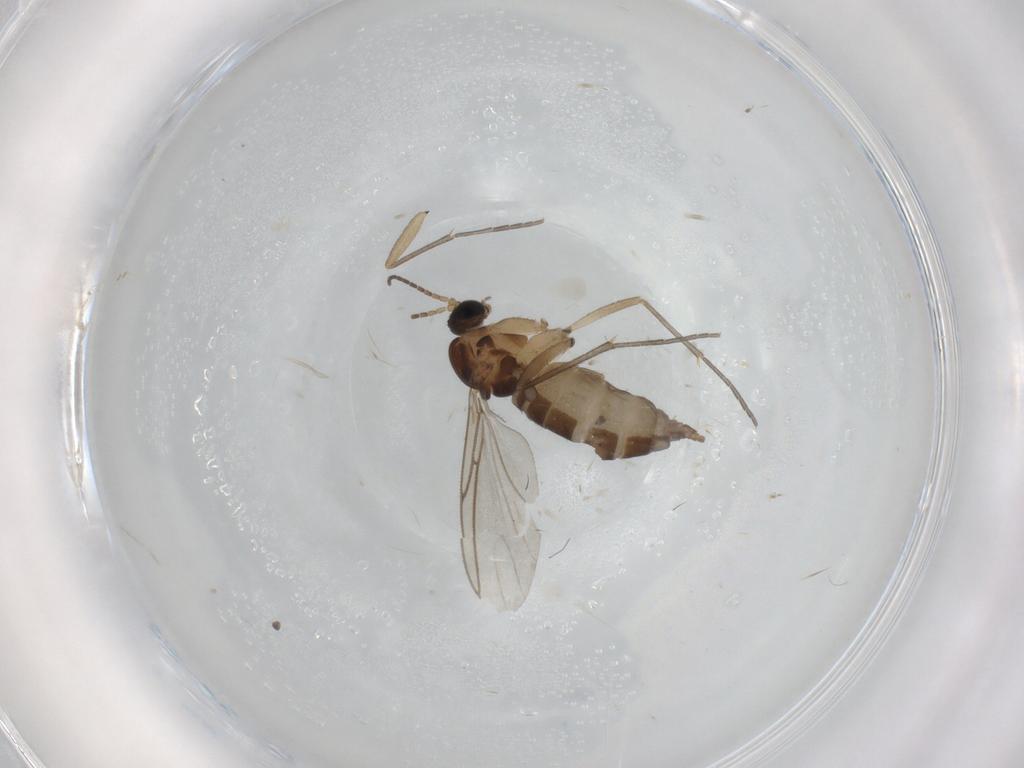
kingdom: Animalia
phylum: Arthropoda
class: Insecta
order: Diptera
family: Sciaridae
